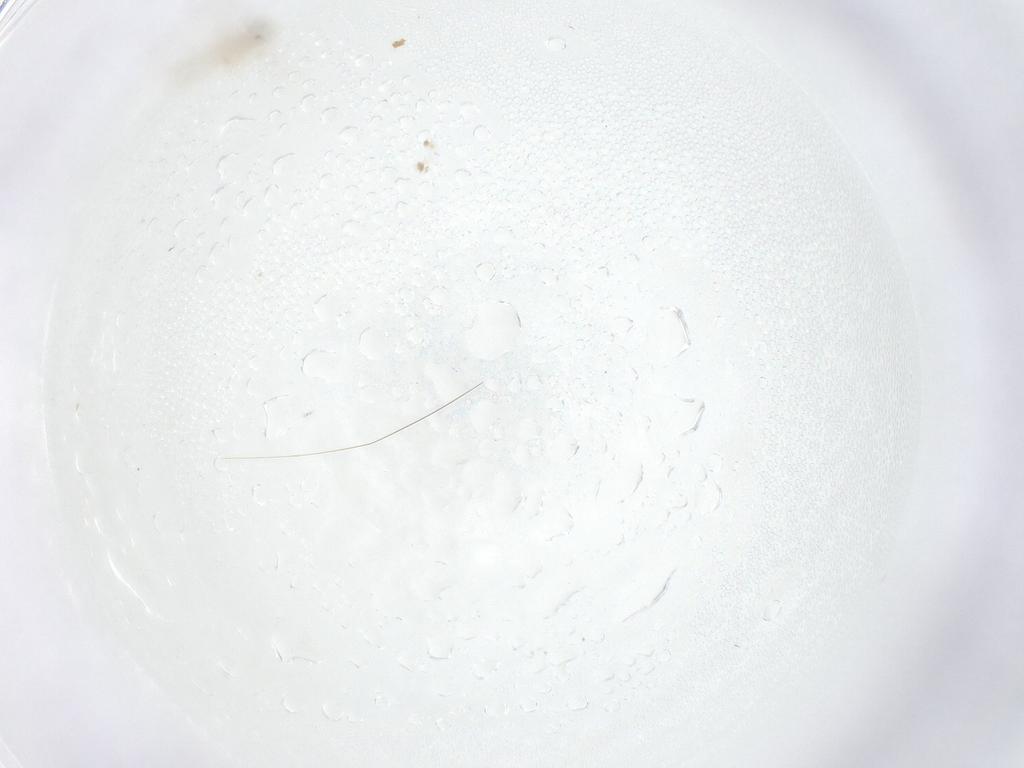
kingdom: Animalia
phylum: Arthropoda
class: Insecta
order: Diptera
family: Phoridae
